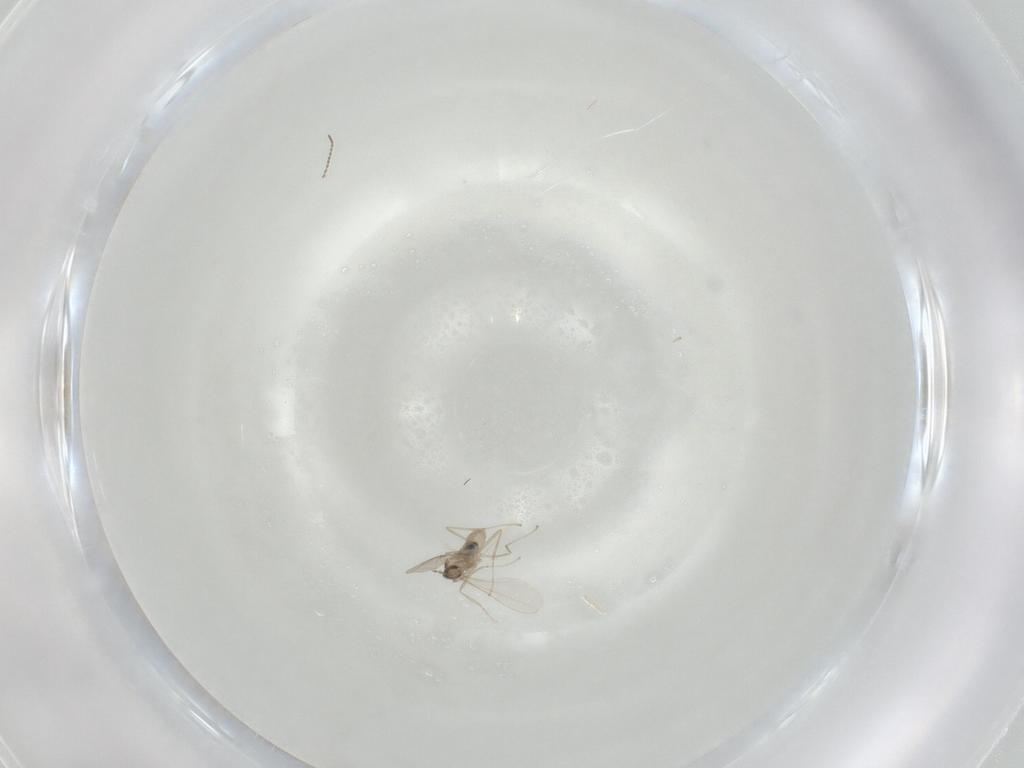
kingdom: Animalia
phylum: Arthropoda
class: Insecta
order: Diptera
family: Cecidomyiidae
